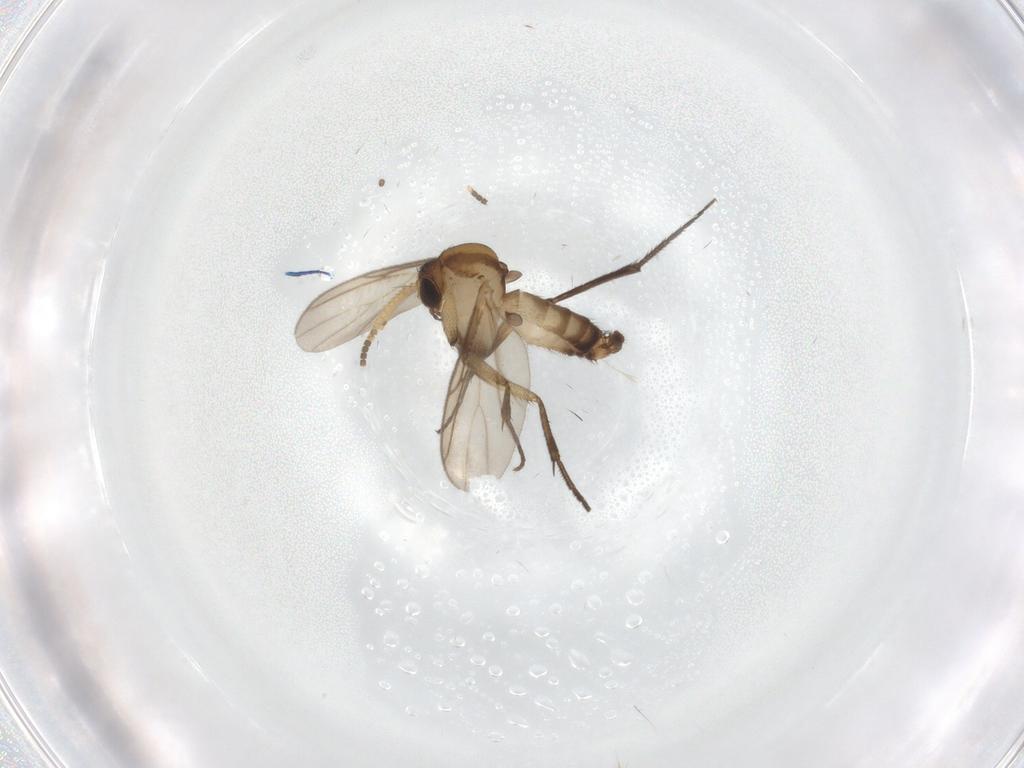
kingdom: Animalia
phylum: Arthropoda
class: Insecta
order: Diptera
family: Mycetophilidae
